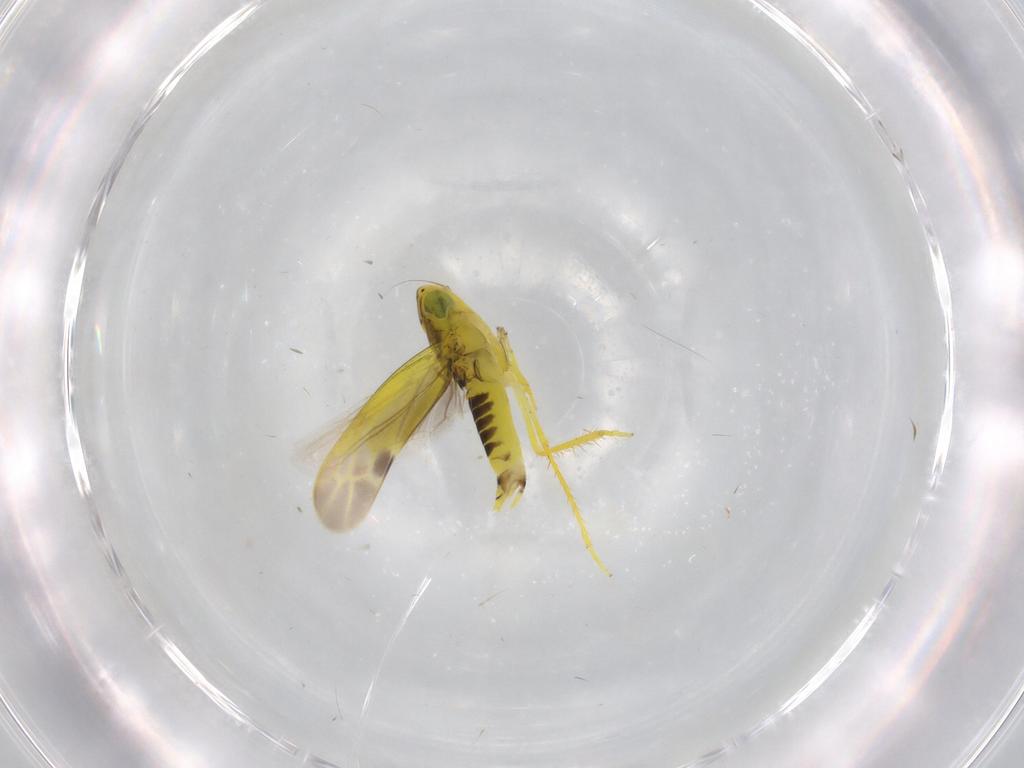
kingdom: Animalia
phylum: Arthropoda
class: Insecta
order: Hemiptera
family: Cicadellidae
